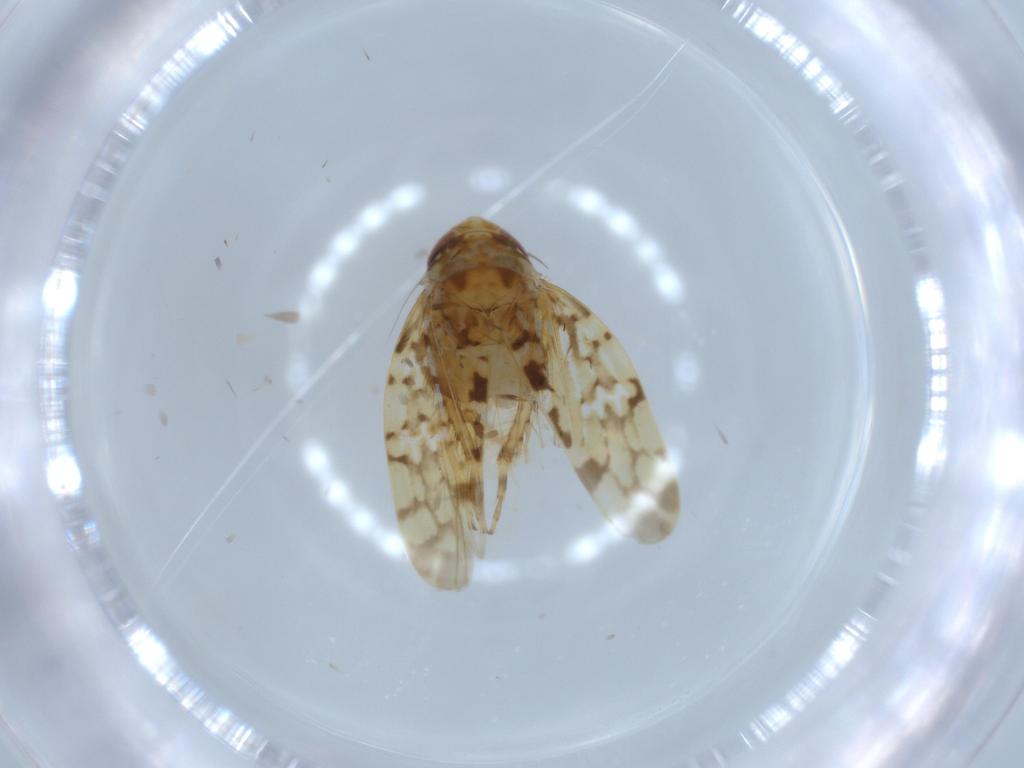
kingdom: Animalia
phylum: Arthropoda
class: Insecta
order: Hemiptera
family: Cicadellidae
